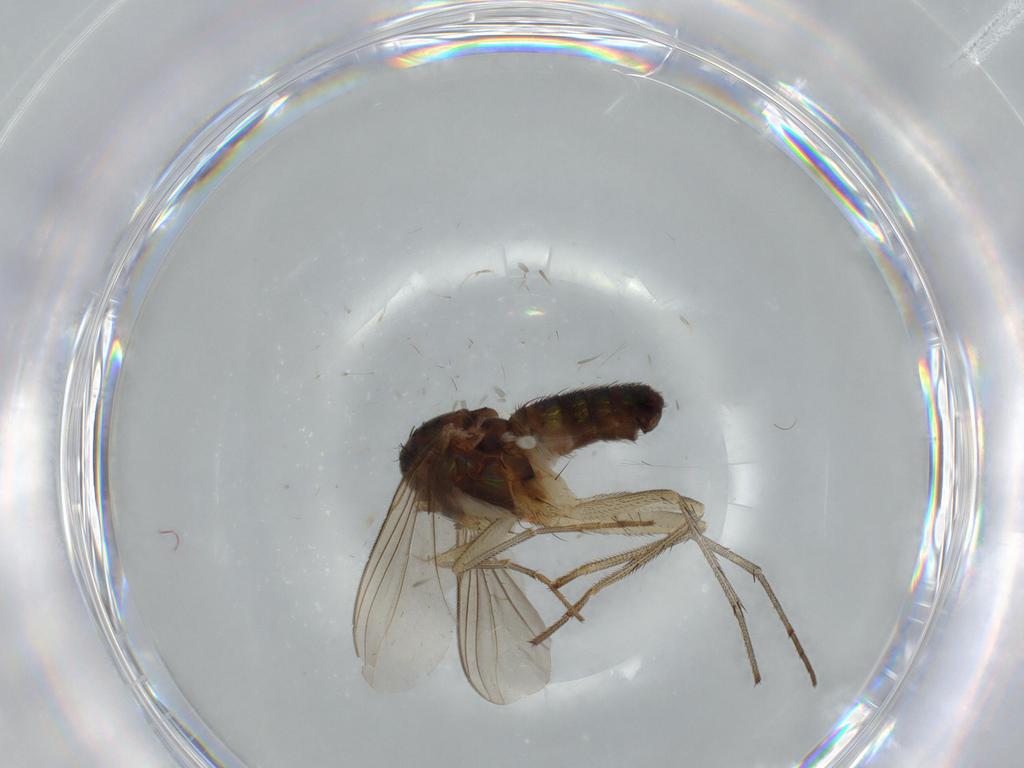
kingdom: Animalia
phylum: Arthropoda
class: Insecta
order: Diptera
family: Dolichopodidae
